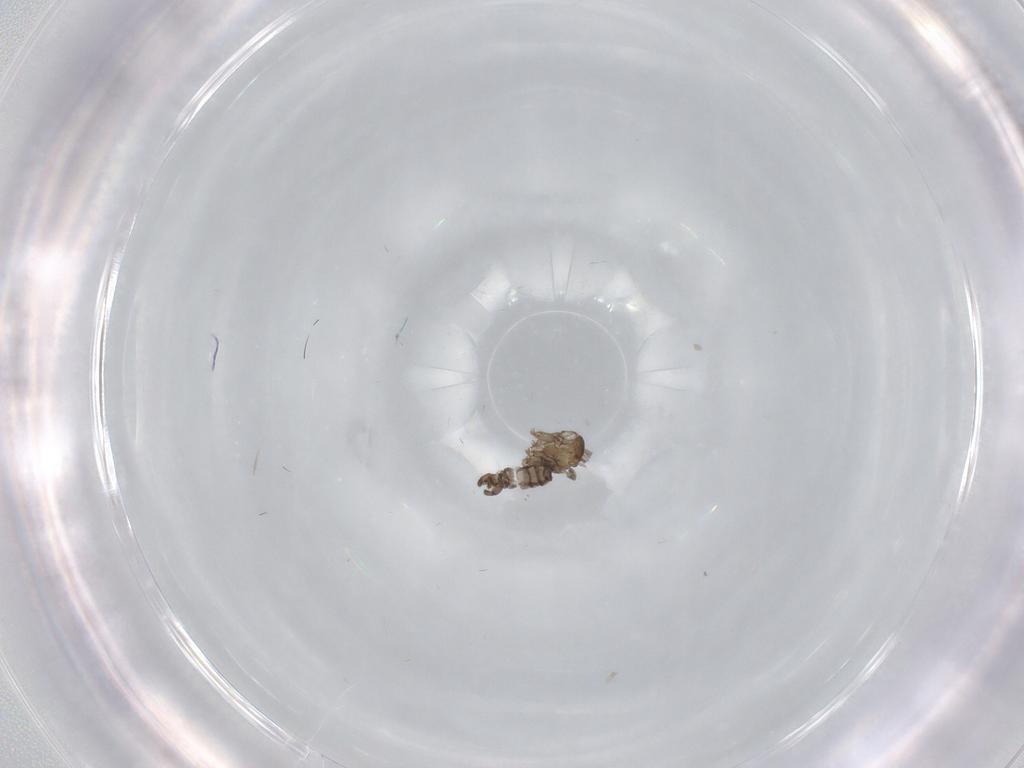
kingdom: Animalia
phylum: Arthropoda
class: Insecta
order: Diptera
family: Sciaridae
